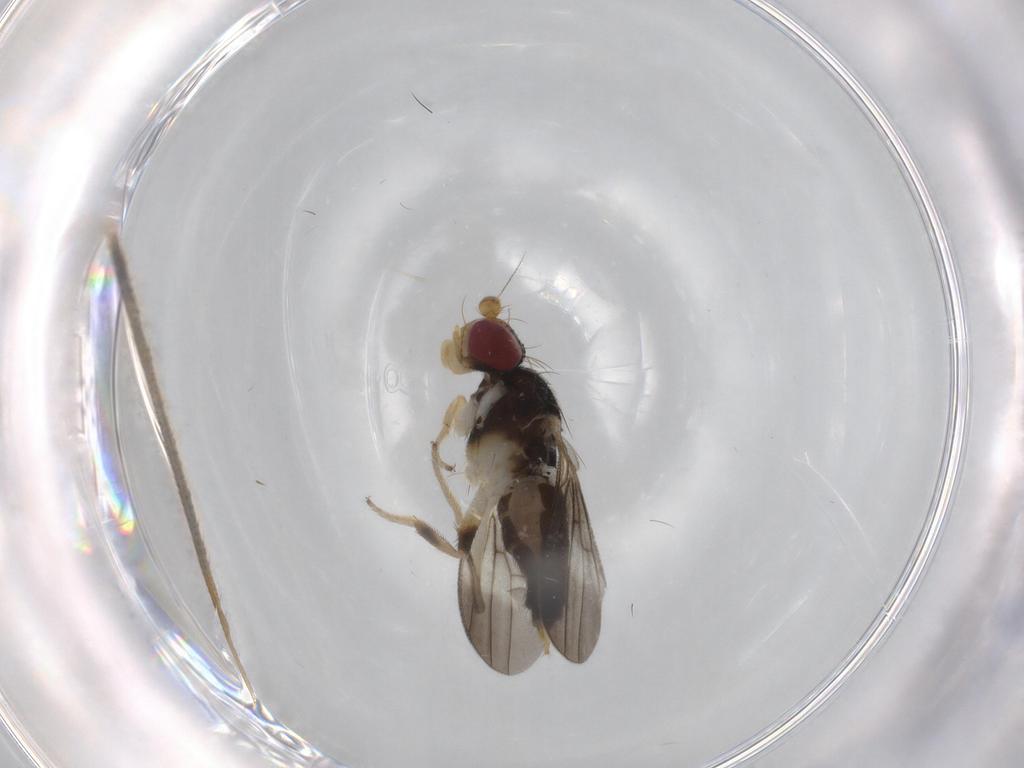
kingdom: Animalia
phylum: Arthropoda
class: Insecta
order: Diptera
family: Clusiidae
